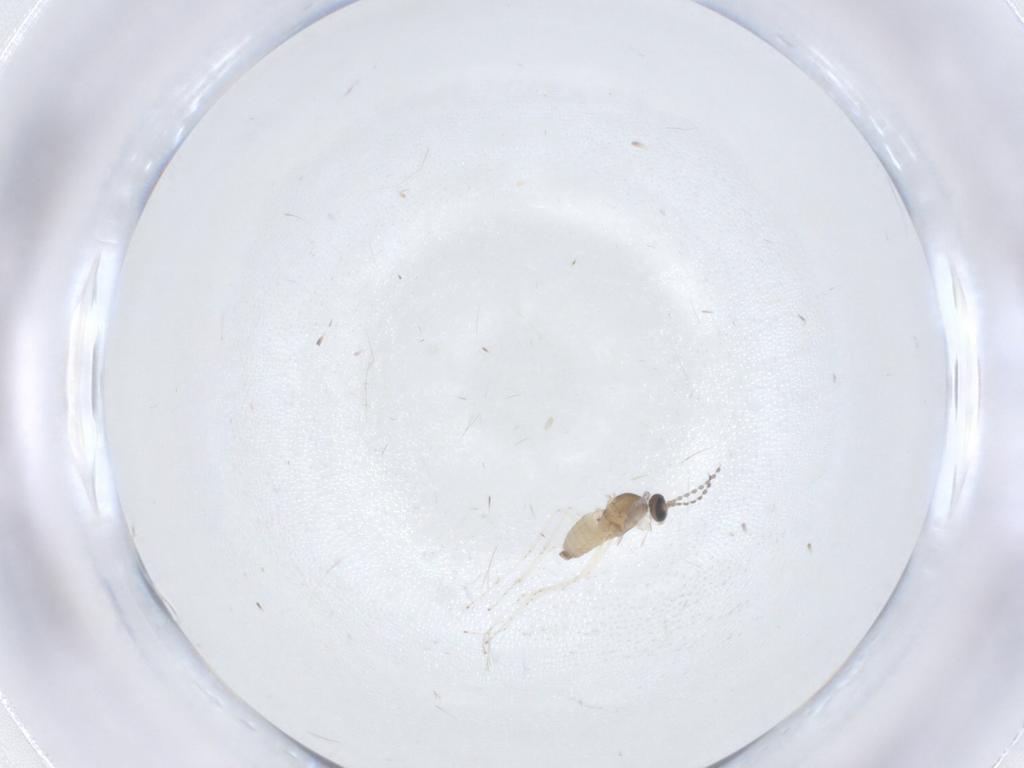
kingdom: Animalia
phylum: Arthropoda
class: Insecta
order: Diptera
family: Cecidomyiidae
